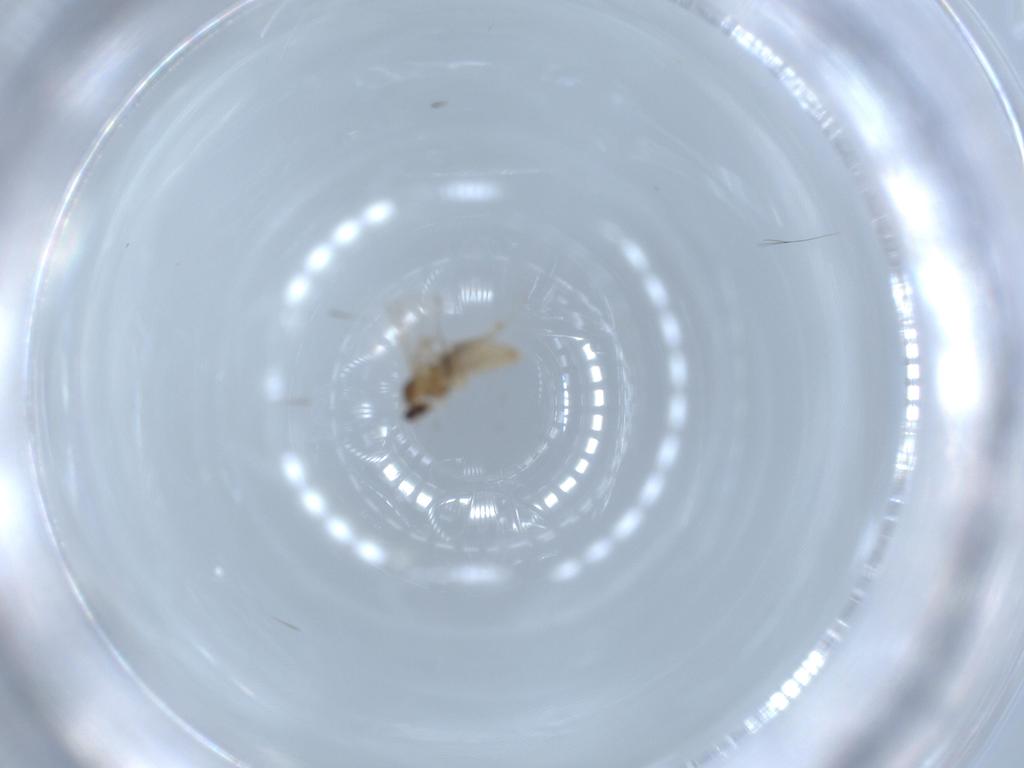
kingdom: Animalia
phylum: Arthropoda
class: Insecta
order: Diptera
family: Cecidomyiidae
